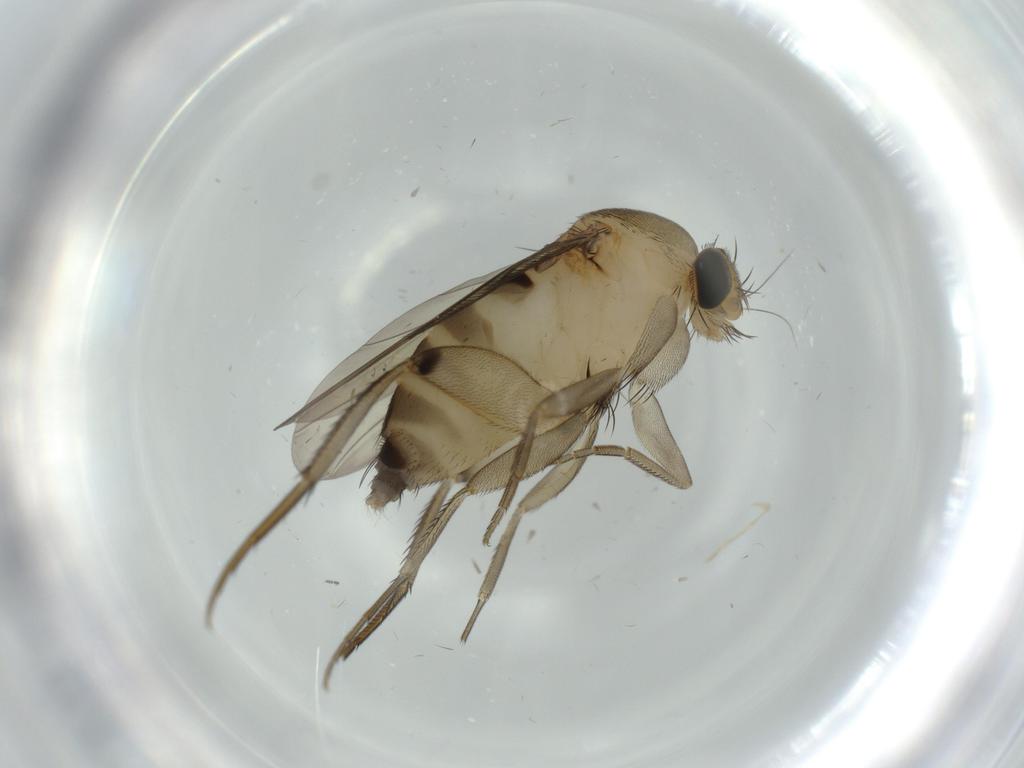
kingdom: Animalia
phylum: Arthropoda
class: Insecta
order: Diptera
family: Phoridae
